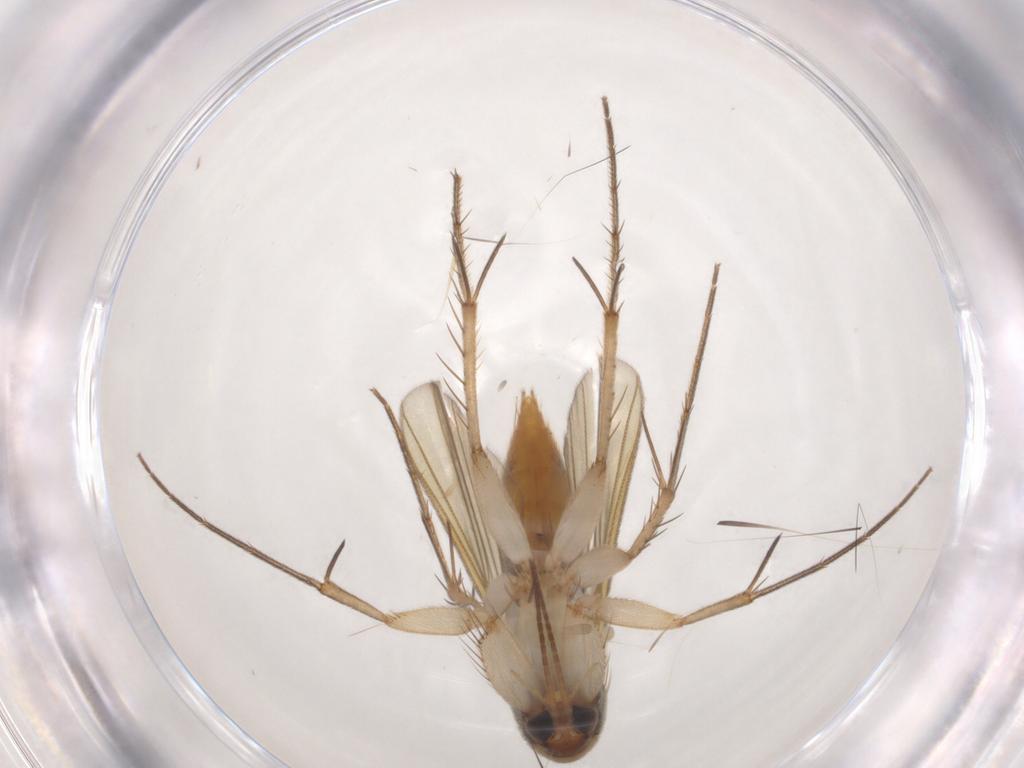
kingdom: Animalia
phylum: Arthropoda
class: Insecta
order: Diptera
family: Mycetophilidae
